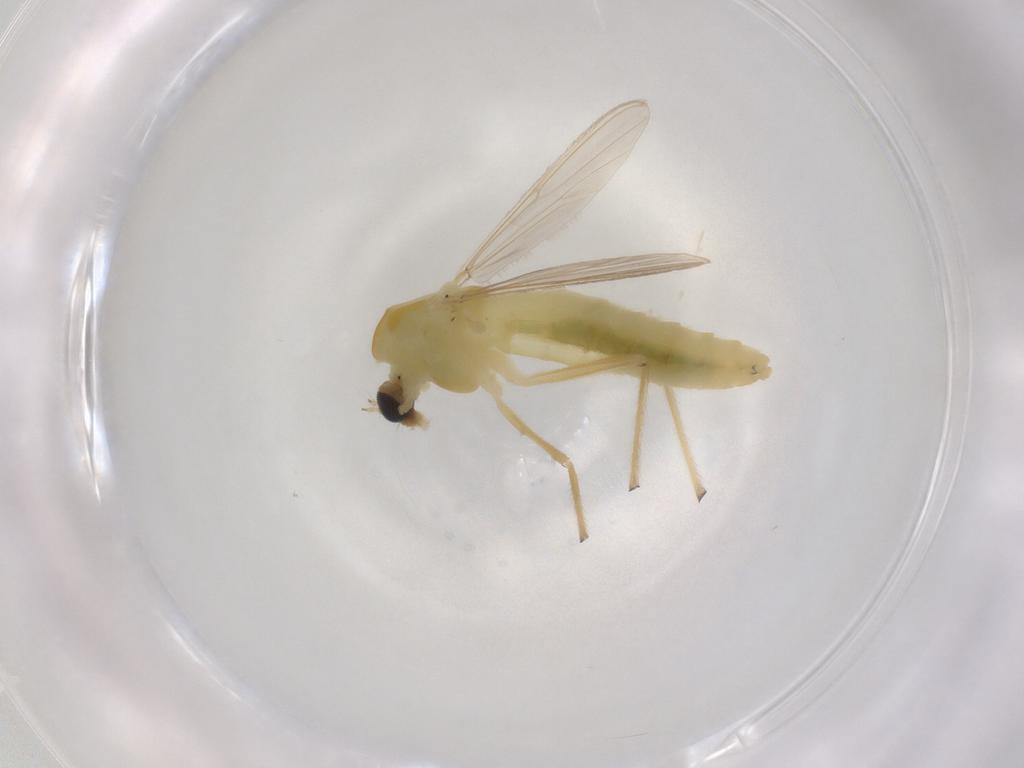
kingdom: Animalia
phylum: Arthropoda
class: Insecta
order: Diptera
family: Chironomidae
